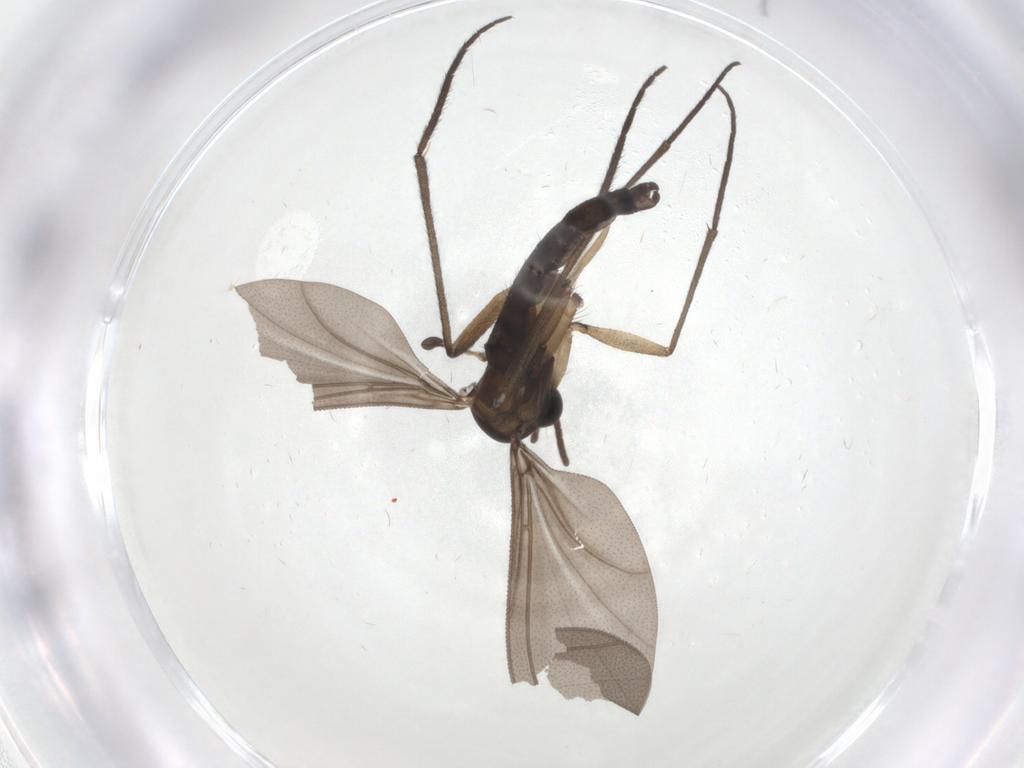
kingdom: Animalia
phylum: Arthropoda
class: Insecta
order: Diptera
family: Sciaridae
